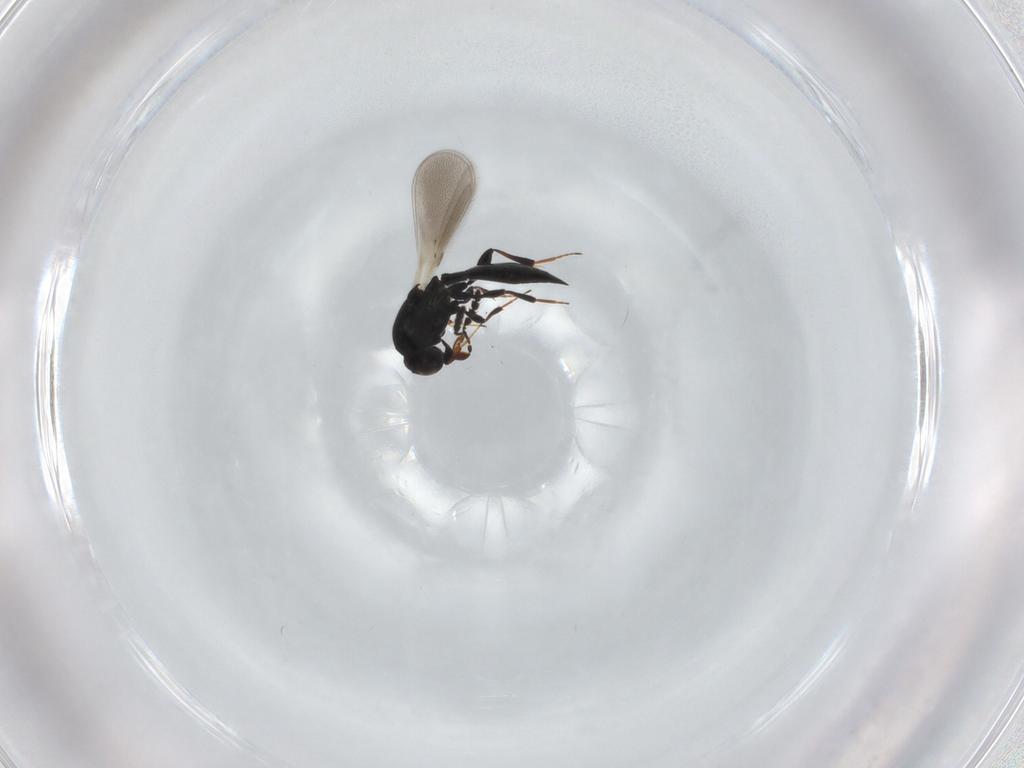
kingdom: Animalia
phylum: Arthropoda
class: Insecta
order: Hymenoptera
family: Platygastridae
